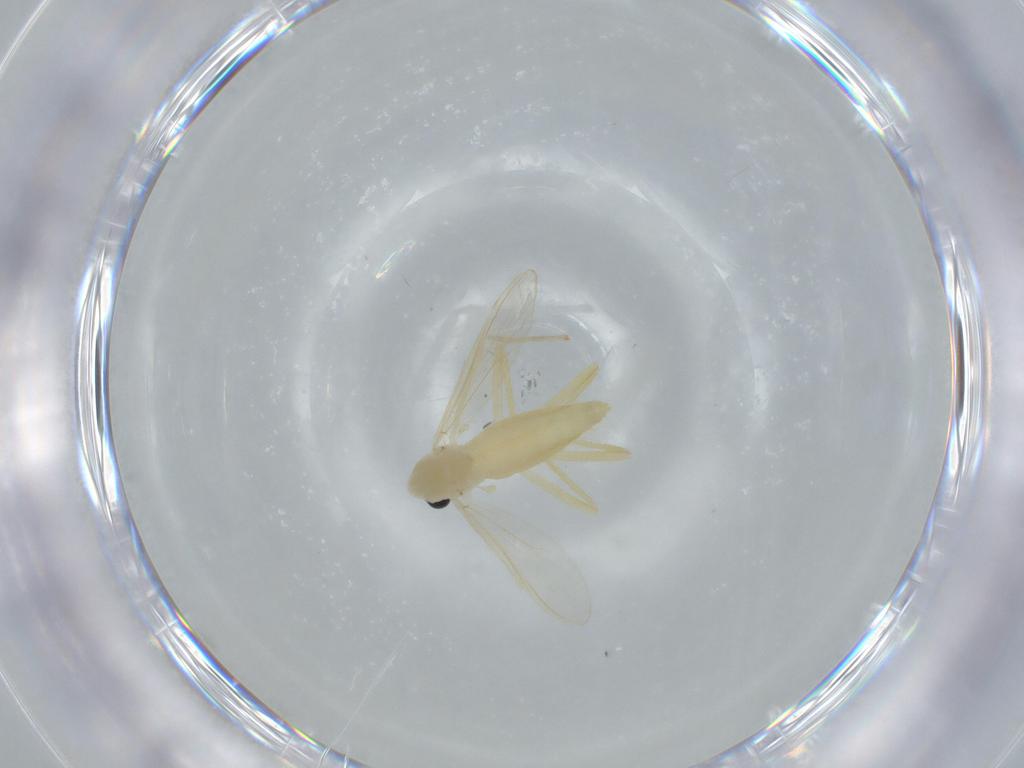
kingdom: Animalia
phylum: Arthropoda
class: Insecta
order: Diptera
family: Chironomidae
